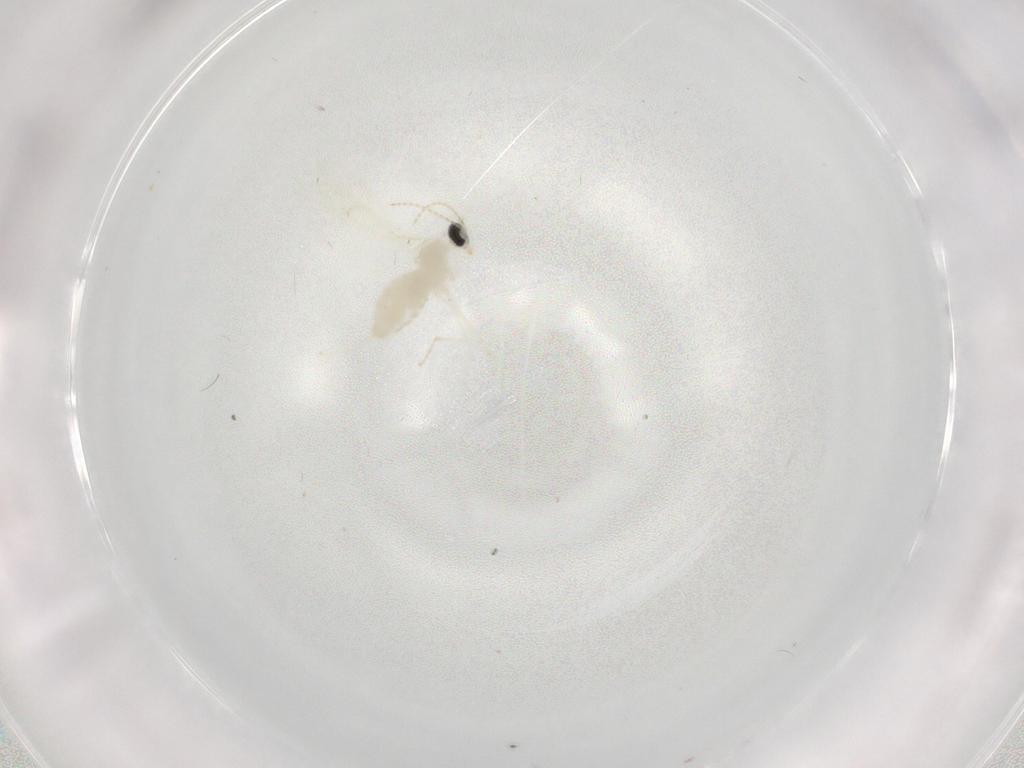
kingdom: Animalia
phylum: Arthropoda
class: Insecta
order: Diptera
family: Cecidomyiidae
